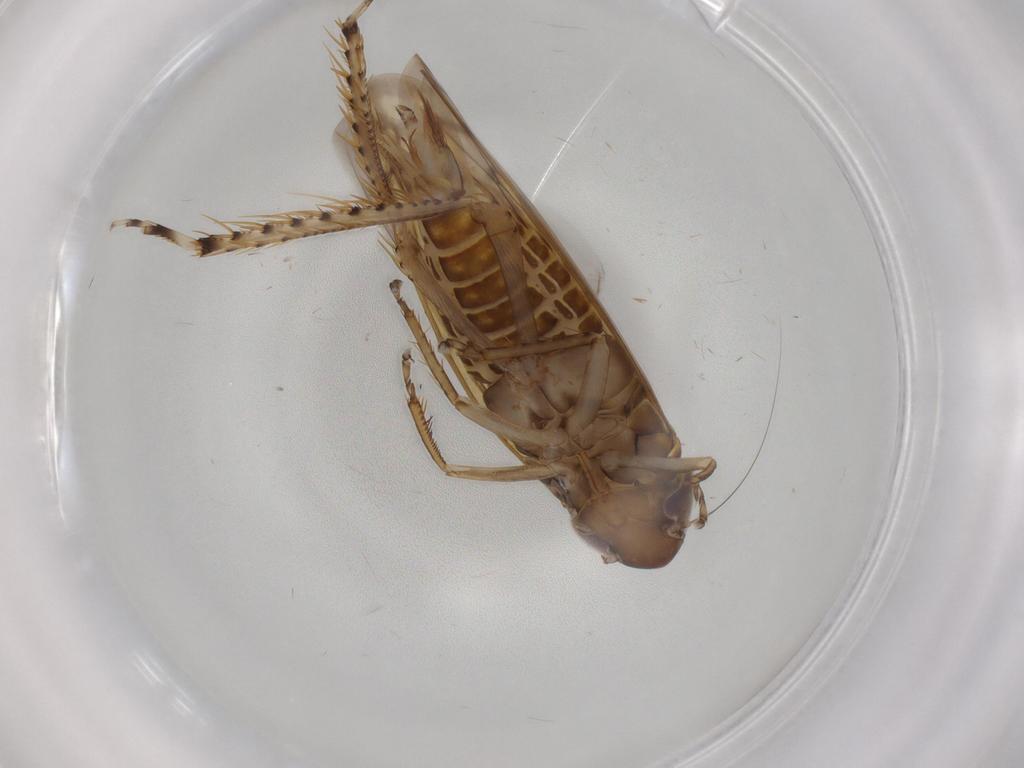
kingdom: Animalia
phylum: Arthropoda
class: Insecta
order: Hemiptera
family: Cicadellidae
